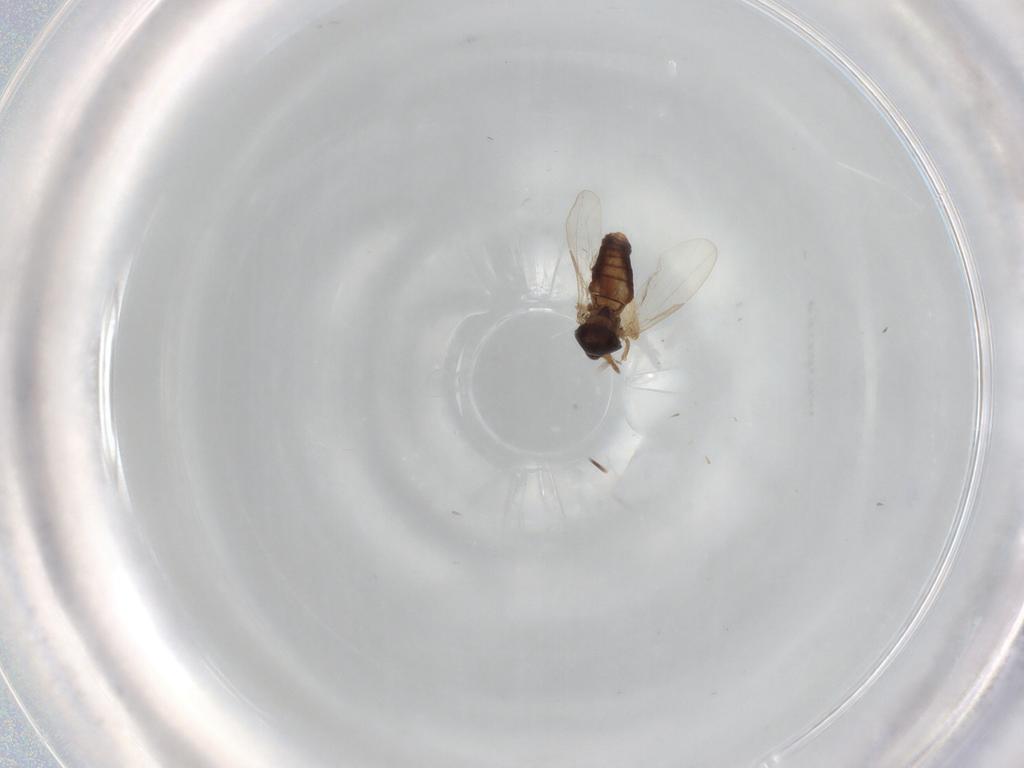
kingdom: Animalia
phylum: Arthropoda
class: Insecta
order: Diptera
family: Ceratopogonidae
